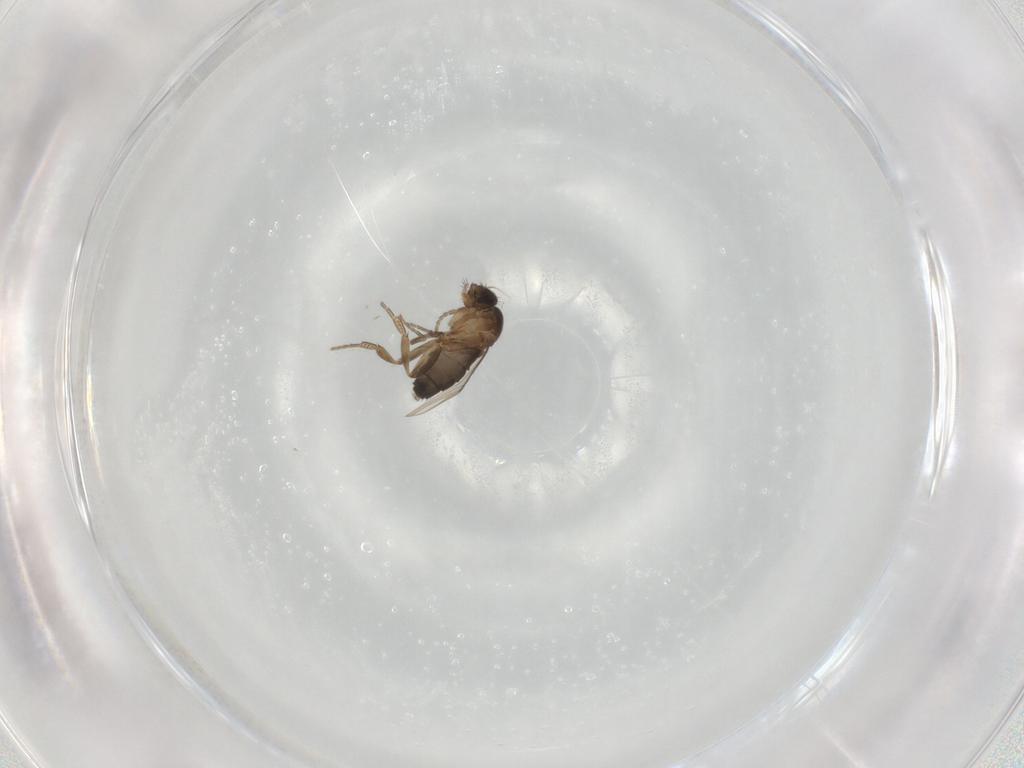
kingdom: Animalia
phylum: Arthropoda
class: Insecta
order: Diptera
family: Phoridae
